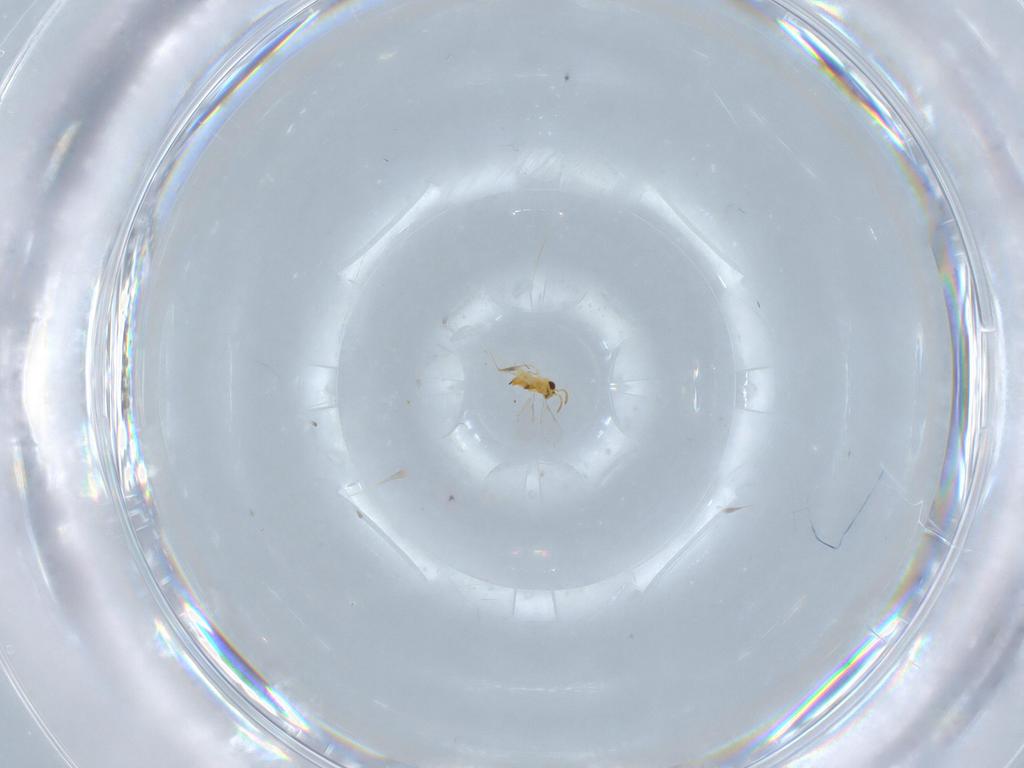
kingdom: Animalia
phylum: Arthropoda
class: Insecta
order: Hymenoptera
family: Aphelinidae
